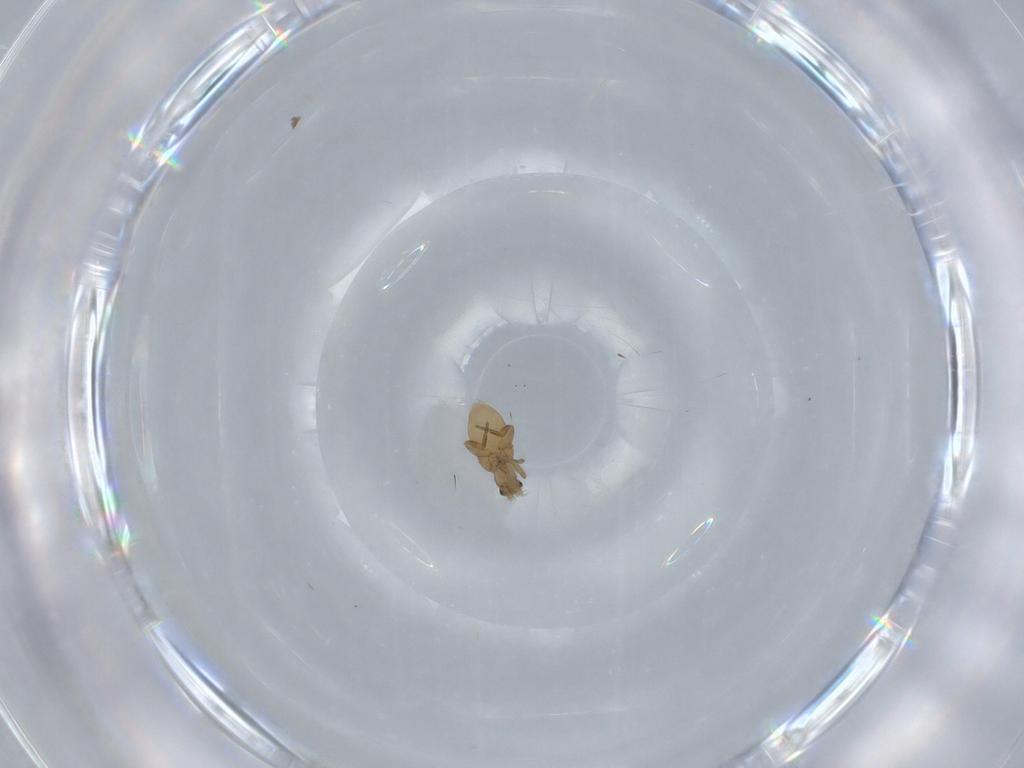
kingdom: Animalia
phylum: Arthropoda
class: Insecta
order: Diptera
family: Phoridae
